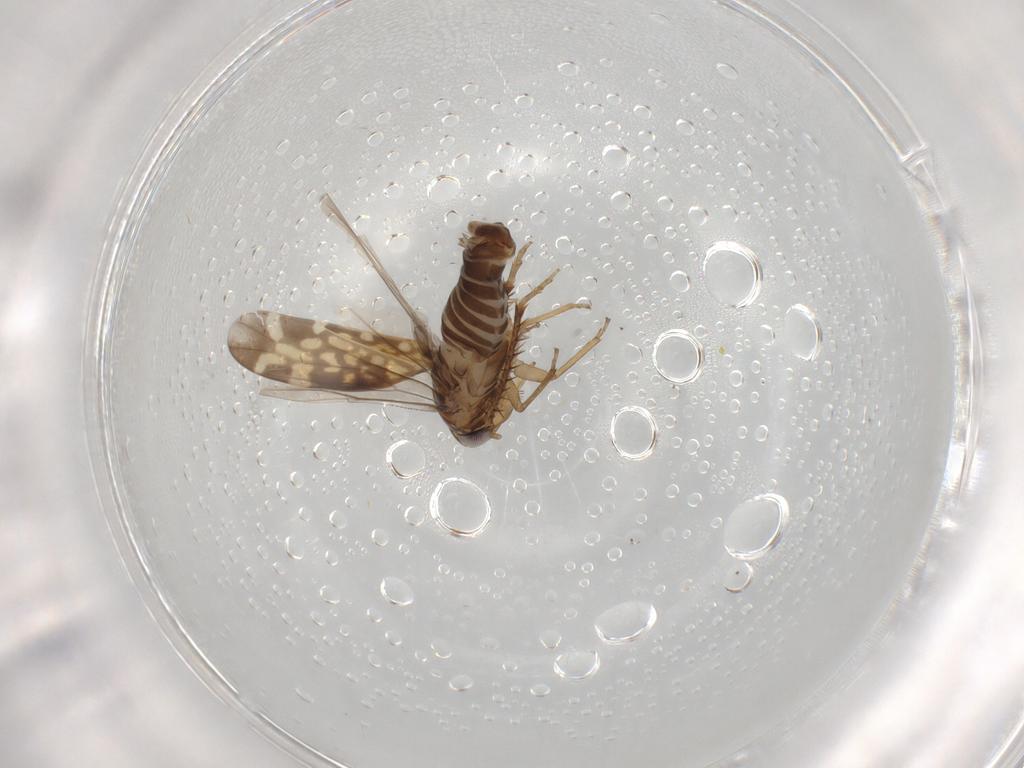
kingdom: Animalia
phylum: Arthropoda
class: Insecta
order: Hemiptera
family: Cicadellidae
